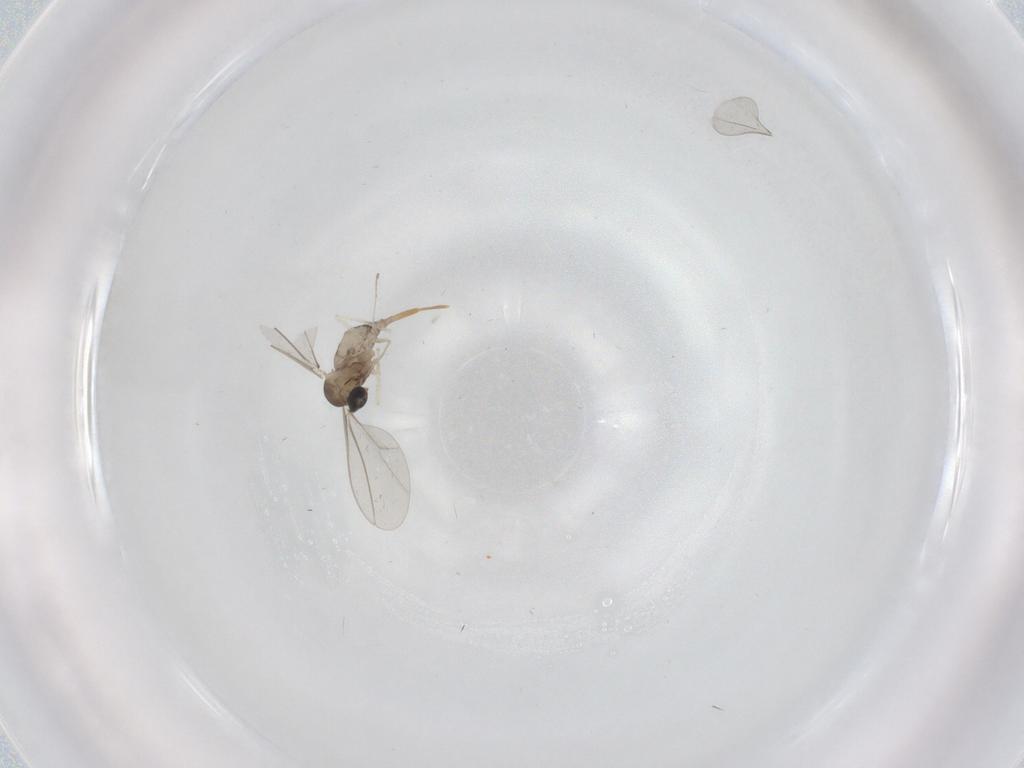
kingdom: Animalia
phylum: Arthropoda
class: Insecta
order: Diptera
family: Cecidomyiidae
